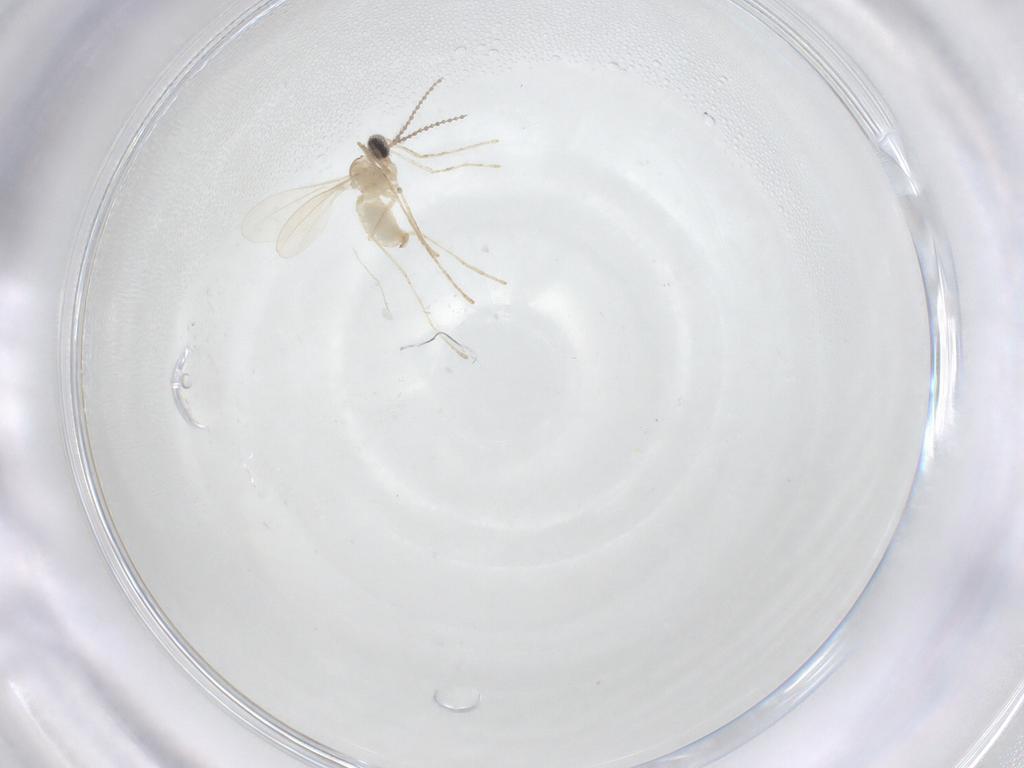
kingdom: Animalia
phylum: Arthropoda
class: Insecta
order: Diptera
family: Cecidomyiidae
